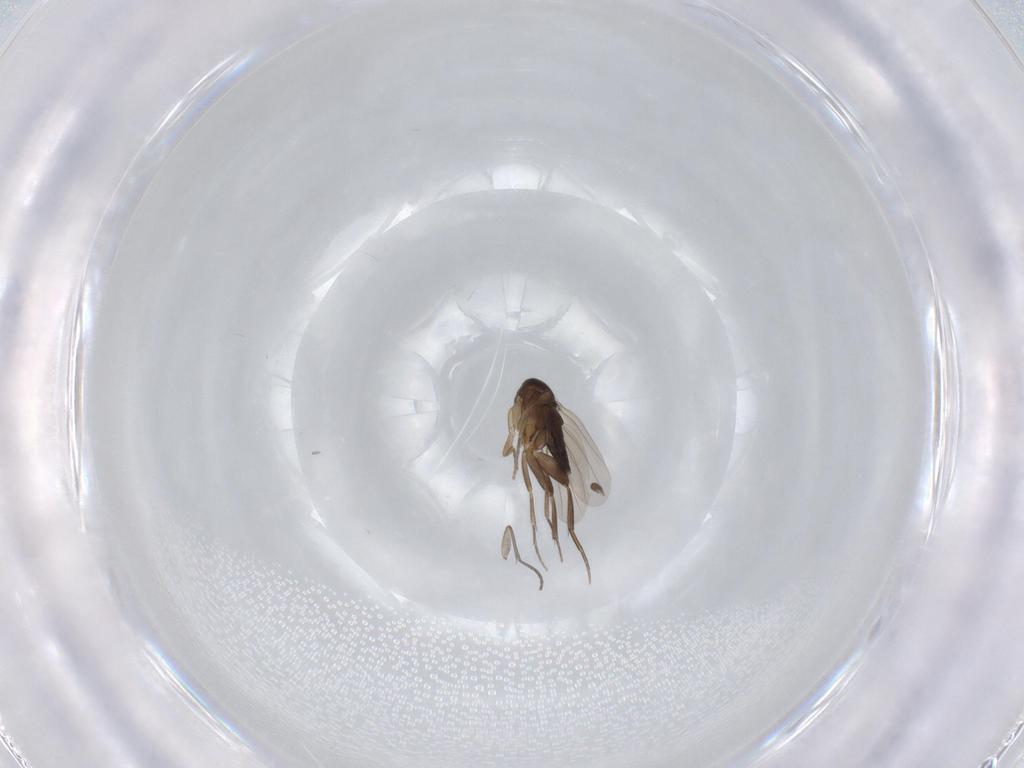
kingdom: Animalia
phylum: Arthropoda
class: Insecta
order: Diptera
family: Phoridae
